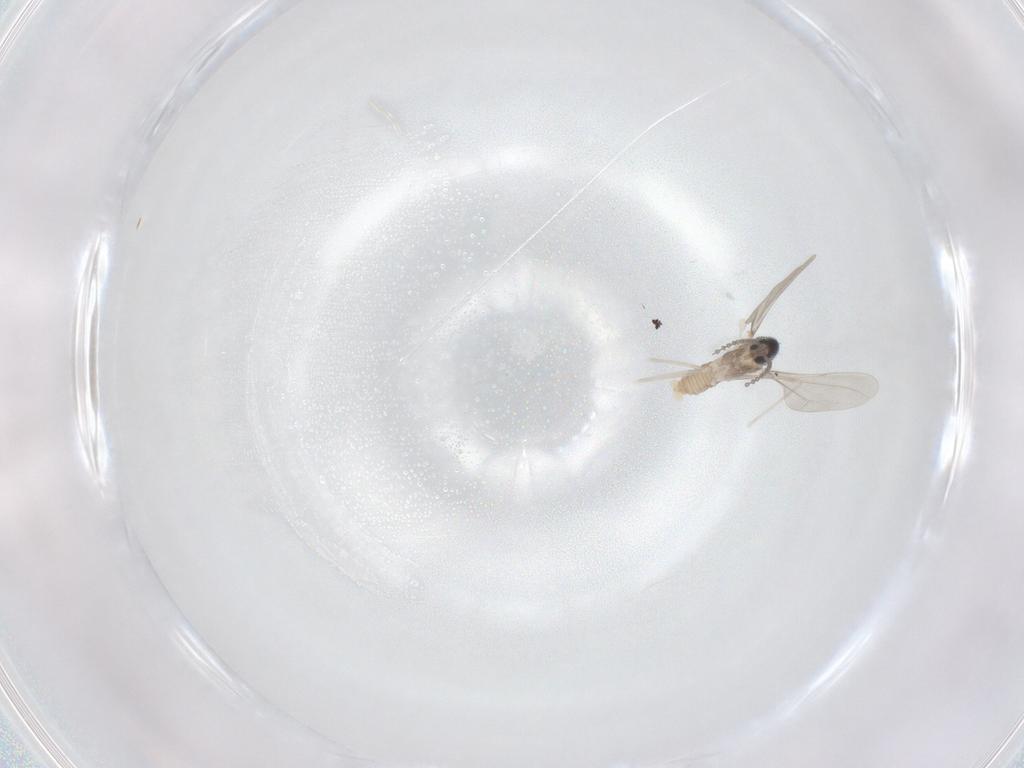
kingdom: Animalia
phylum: Arthropoda
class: Insecta
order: Diptera
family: Cecidomyiidae
